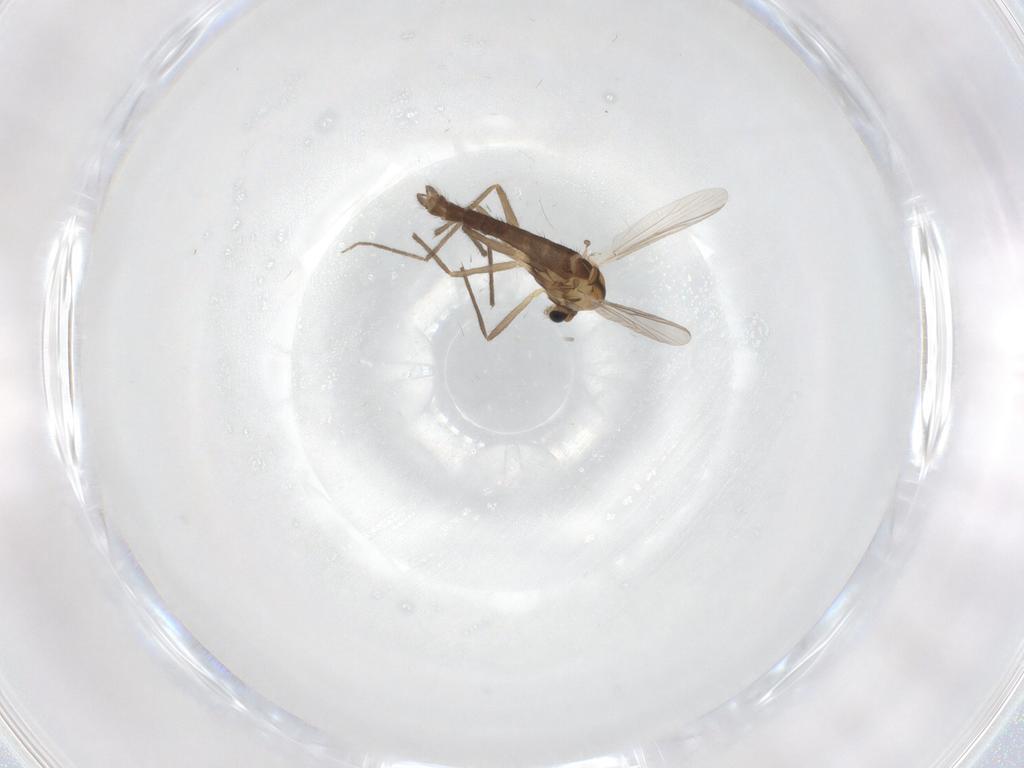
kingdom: Animalia
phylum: Arthropoda
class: Insecta
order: Diptera
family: Chironomidae
